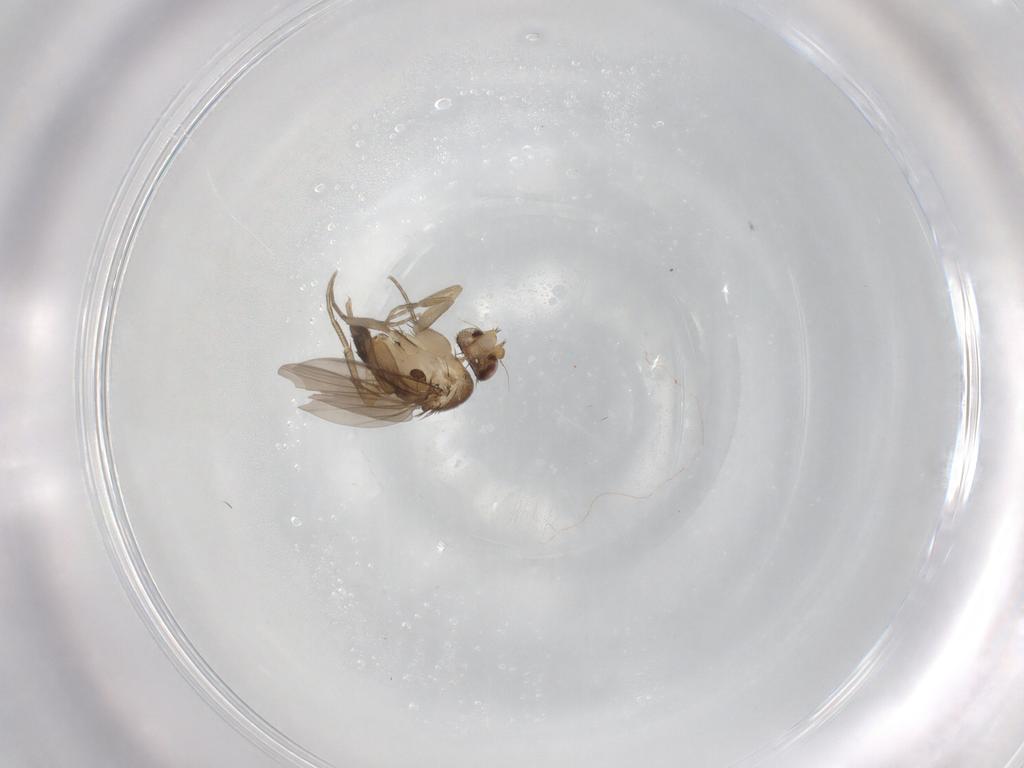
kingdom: Animalia
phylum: Arthropoda
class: Insecta
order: Diptera
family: Phoridae
